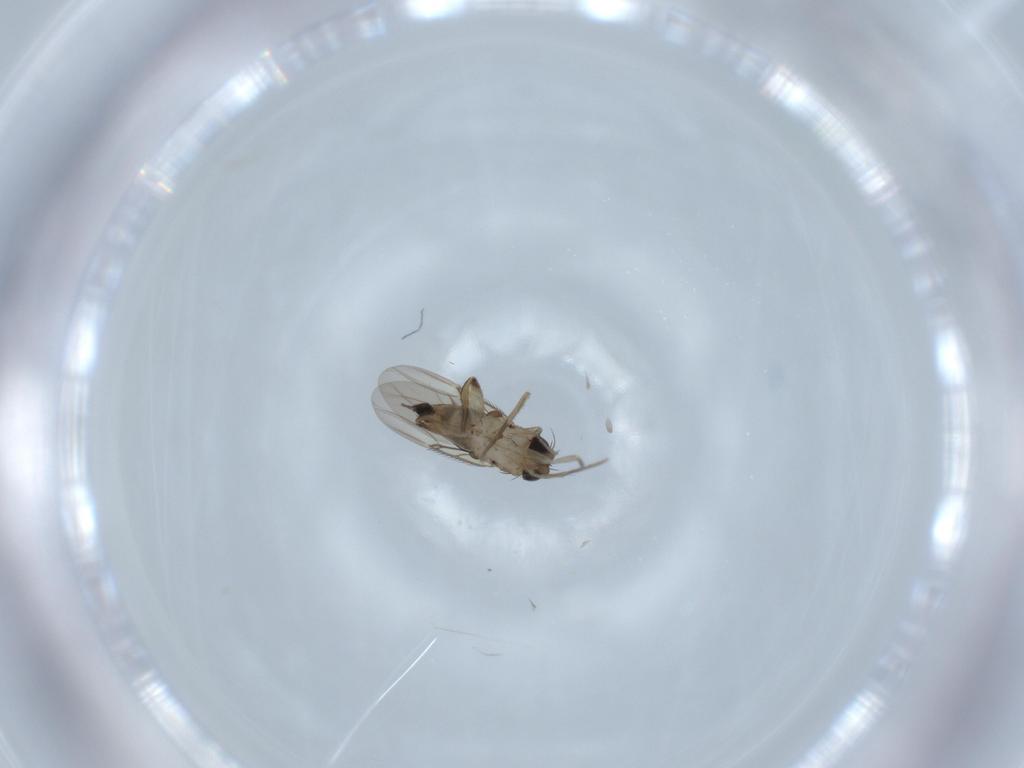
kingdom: Animalia
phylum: Arthropoda
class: Insecta
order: Diptera
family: Phoridae
